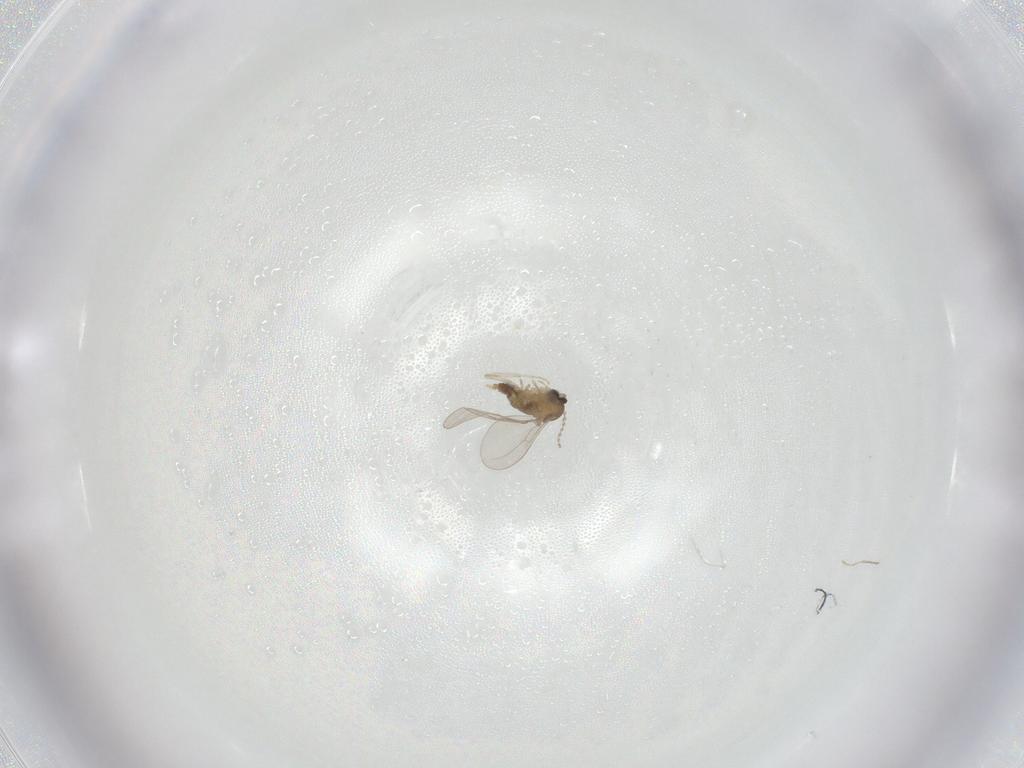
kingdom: Animalia
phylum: Arthropoda
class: Insecta
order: Diptera
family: Cecidomyiidae
